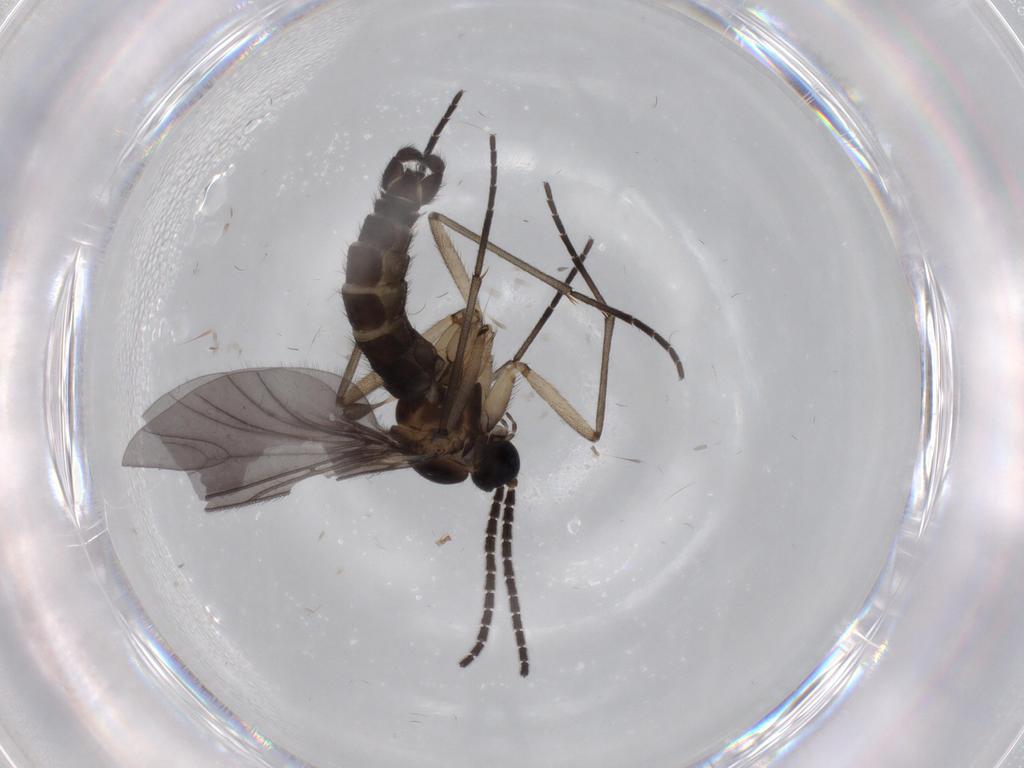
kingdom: Animalia
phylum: Arthropoda
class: Insecta
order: Diptera
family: Sciaridae
